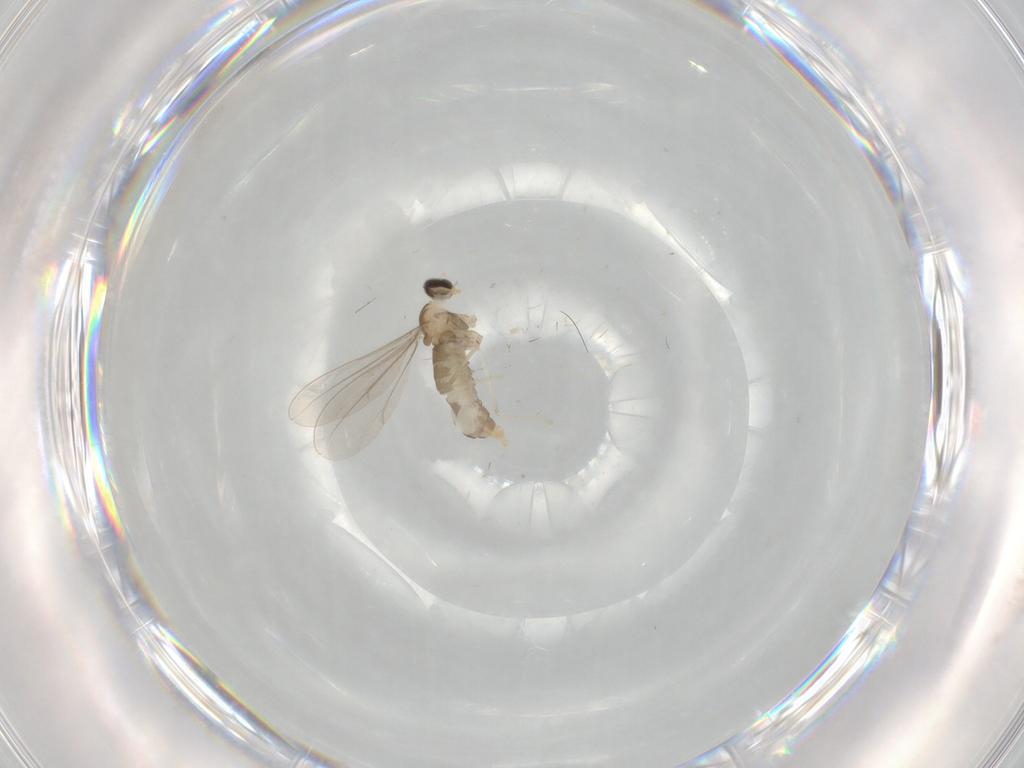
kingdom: Animalia
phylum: Arthropoda
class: Insecta
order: Diptera
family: Cecidomyiidae
